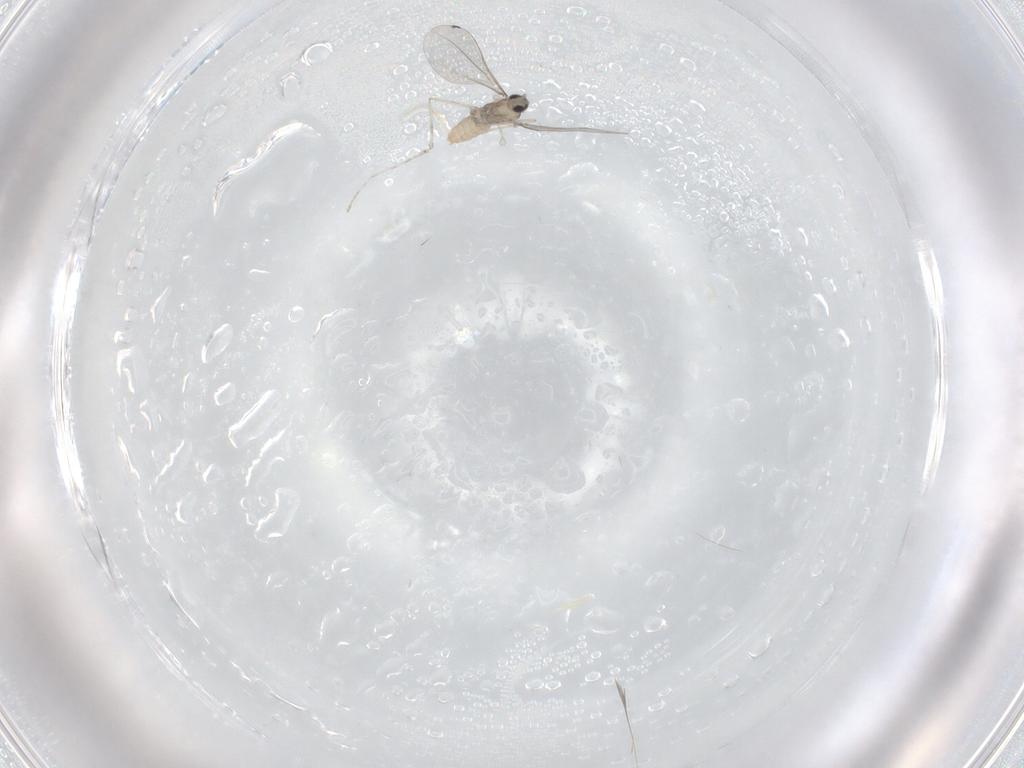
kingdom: Animalia
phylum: Arthropoda
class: Insecta
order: Diptera
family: Cecidomyiidae
